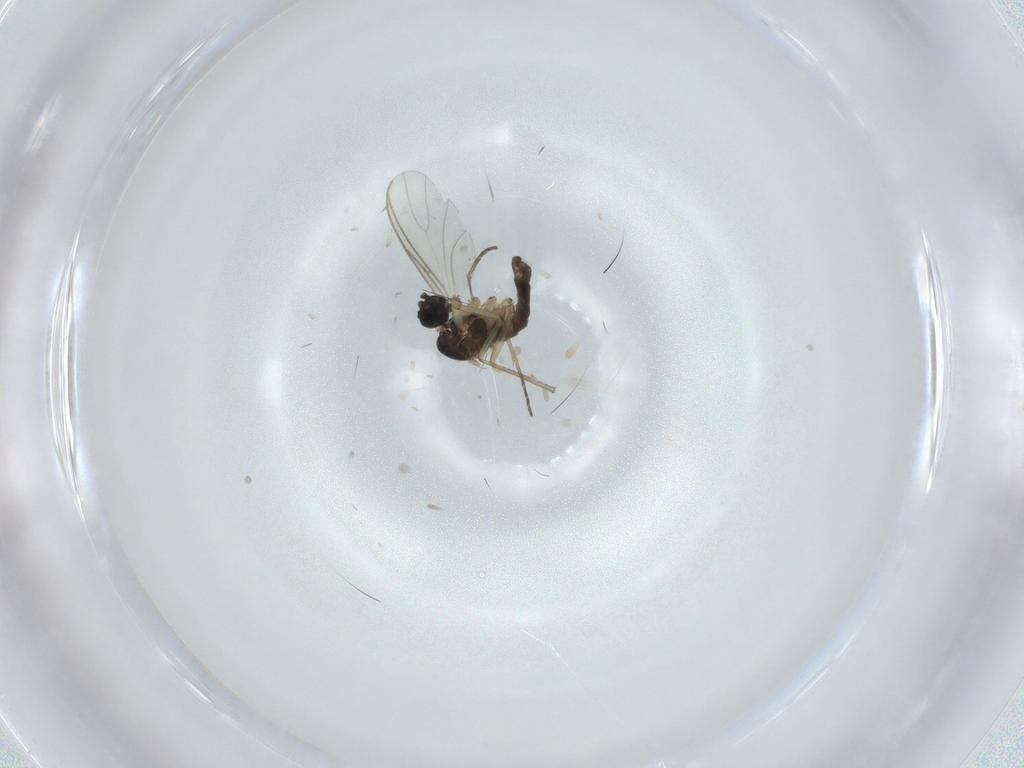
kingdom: Animalia
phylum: Arthropoda
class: Insecta
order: Diptera
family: Sciaridae
